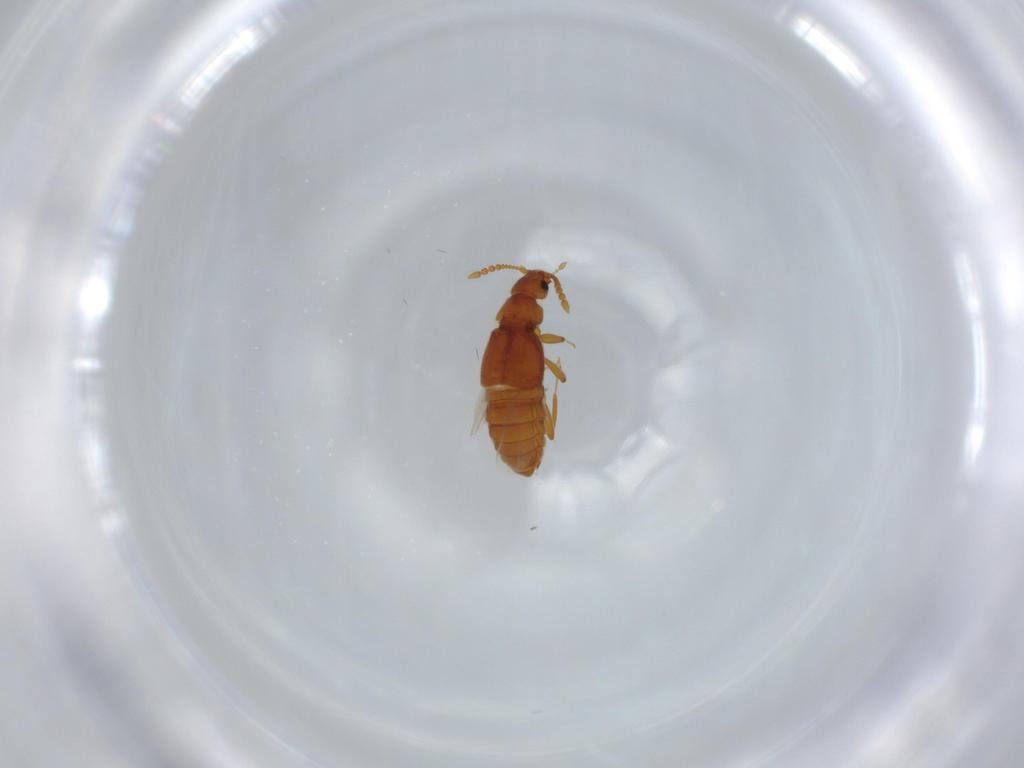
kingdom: Animalia
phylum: Arthropoda
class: Insecta
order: Coleoptera
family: Staphylinidae
